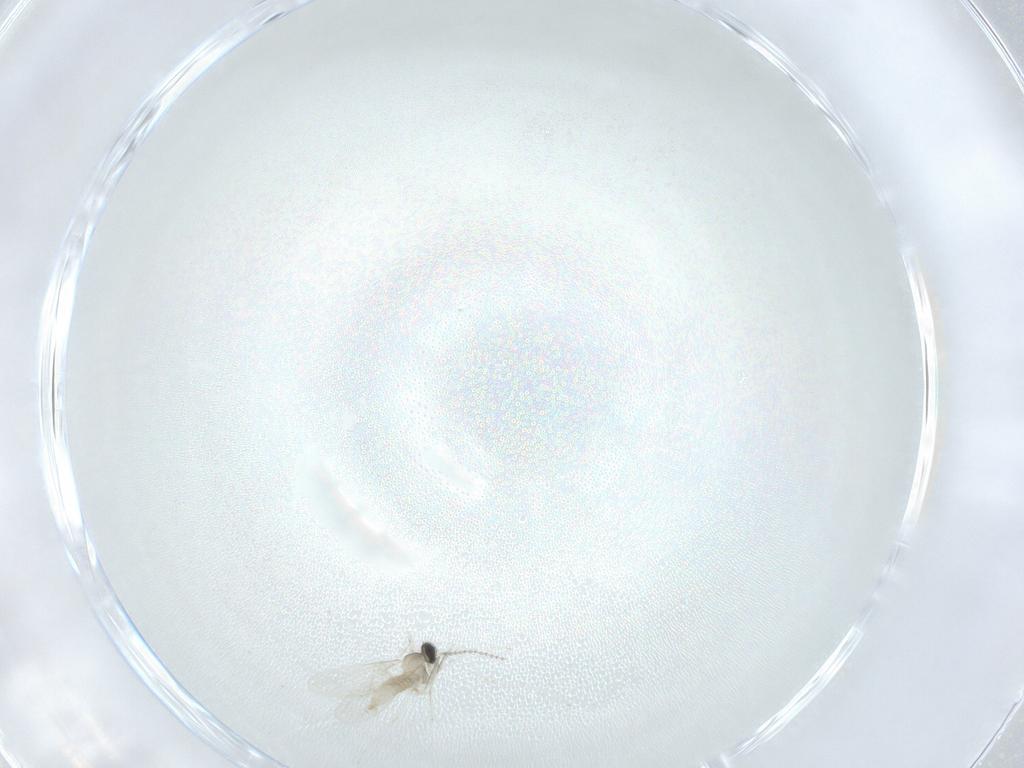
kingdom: Animalia
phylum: Arthropoda
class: Insecta
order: Diptera
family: Cecidomyiidae
